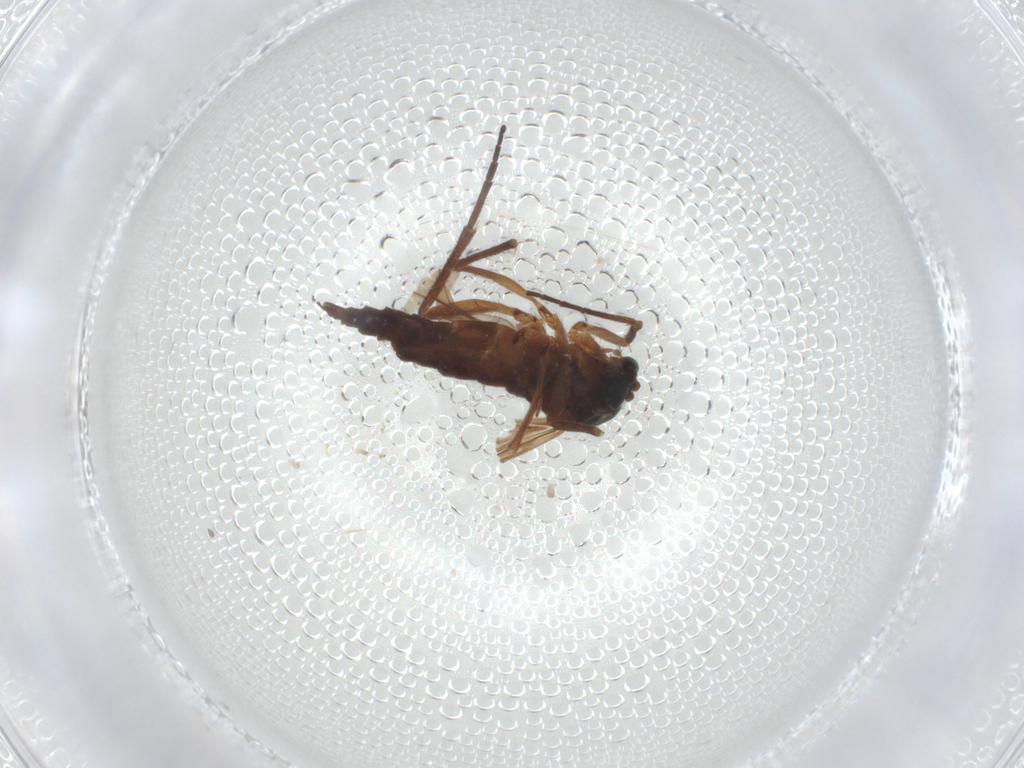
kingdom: Animalia
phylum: Arthropoda
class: Insecta
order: Diptera
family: Sciaridae
